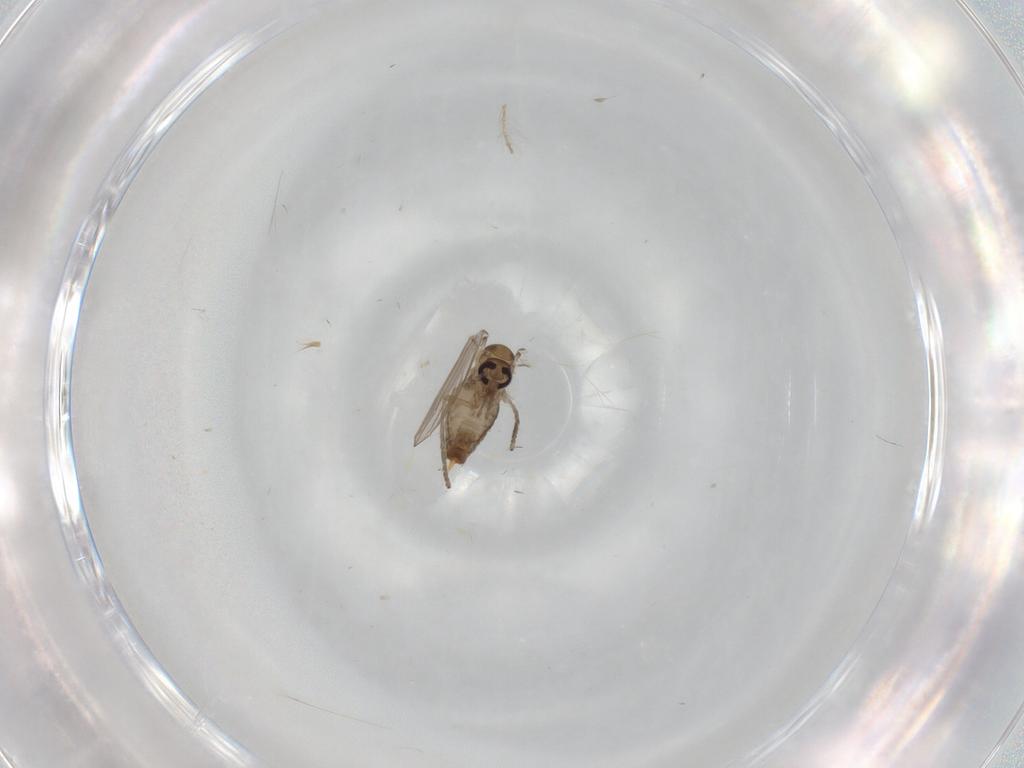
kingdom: Animalia
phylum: Arthropoda
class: Insecta
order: Diptera
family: Psychodidae
